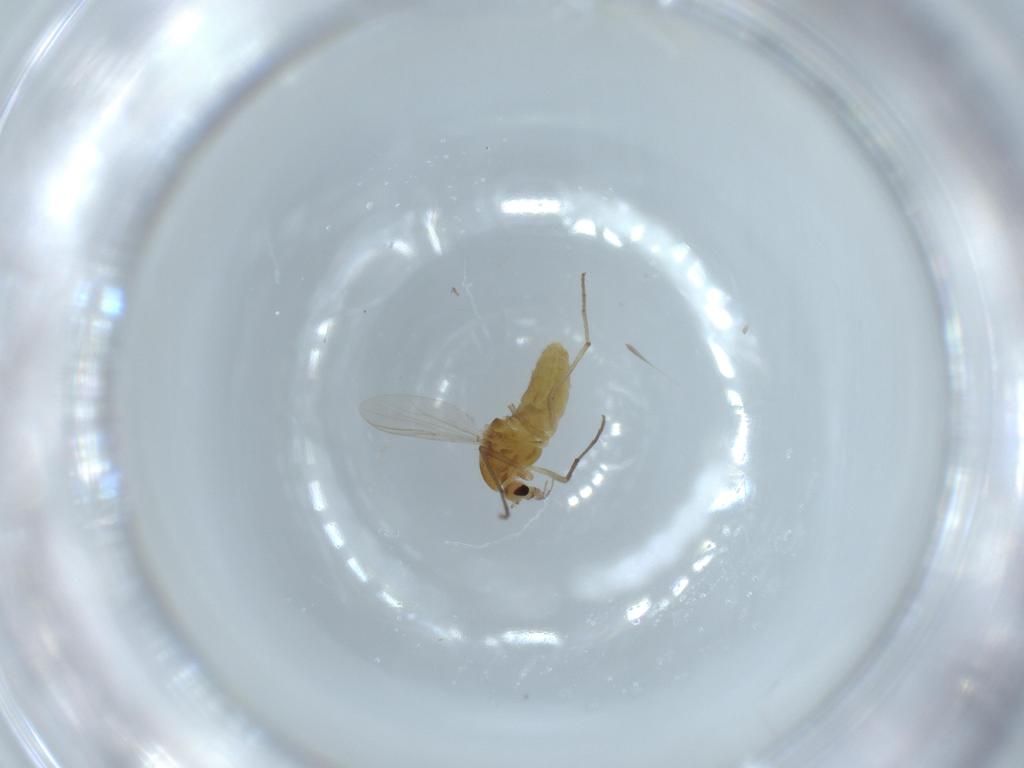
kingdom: Animalia
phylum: Arthropoda
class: Insecta
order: Diptera
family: Chironomidae
